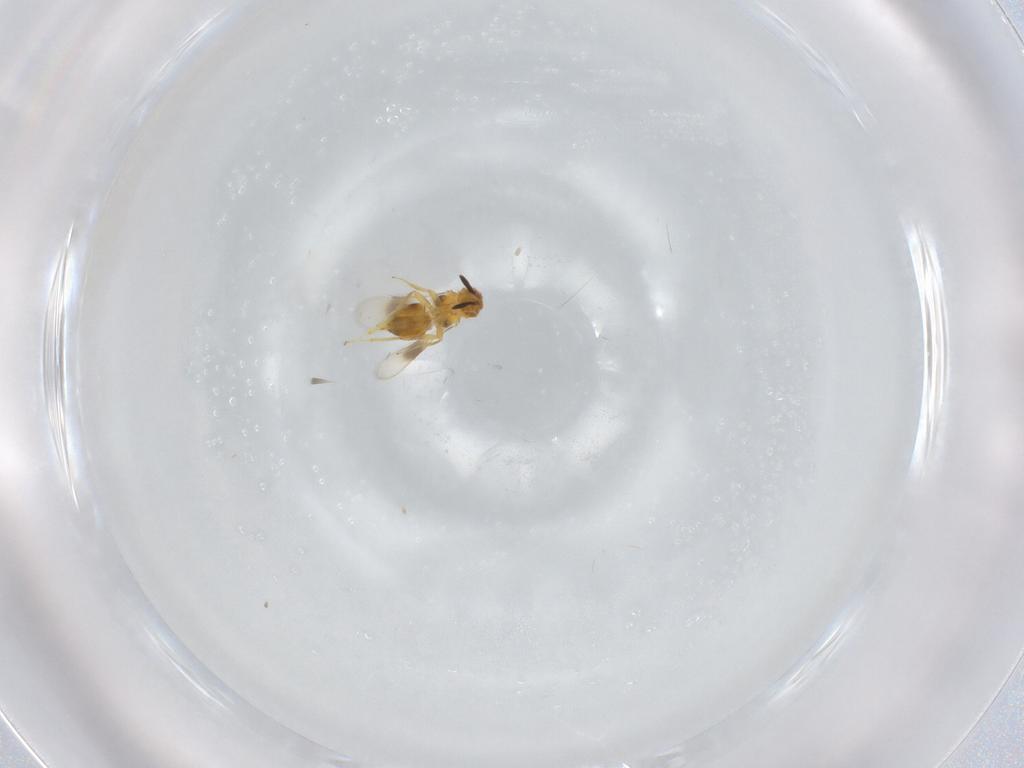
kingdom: Animalia
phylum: Arthropoda
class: Insecta
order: Hymenoptera
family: Encyrtidae
